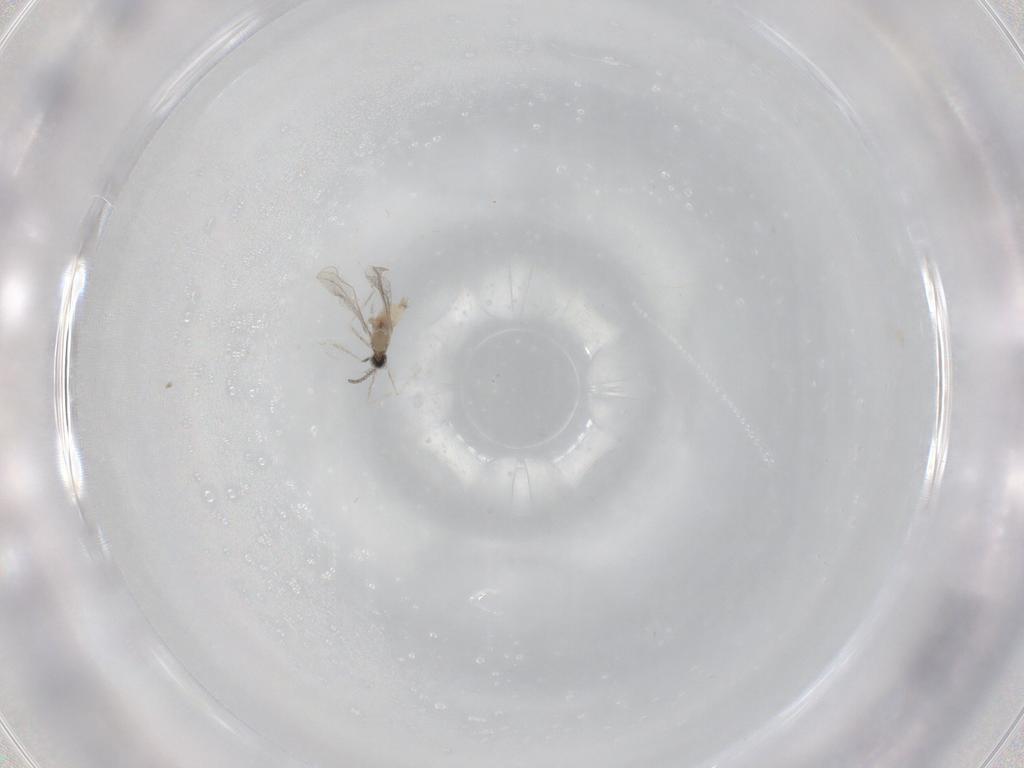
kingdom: Animalia
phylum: Arthropoda
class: Insecta
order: Diptera
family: Cecidomyiidae
